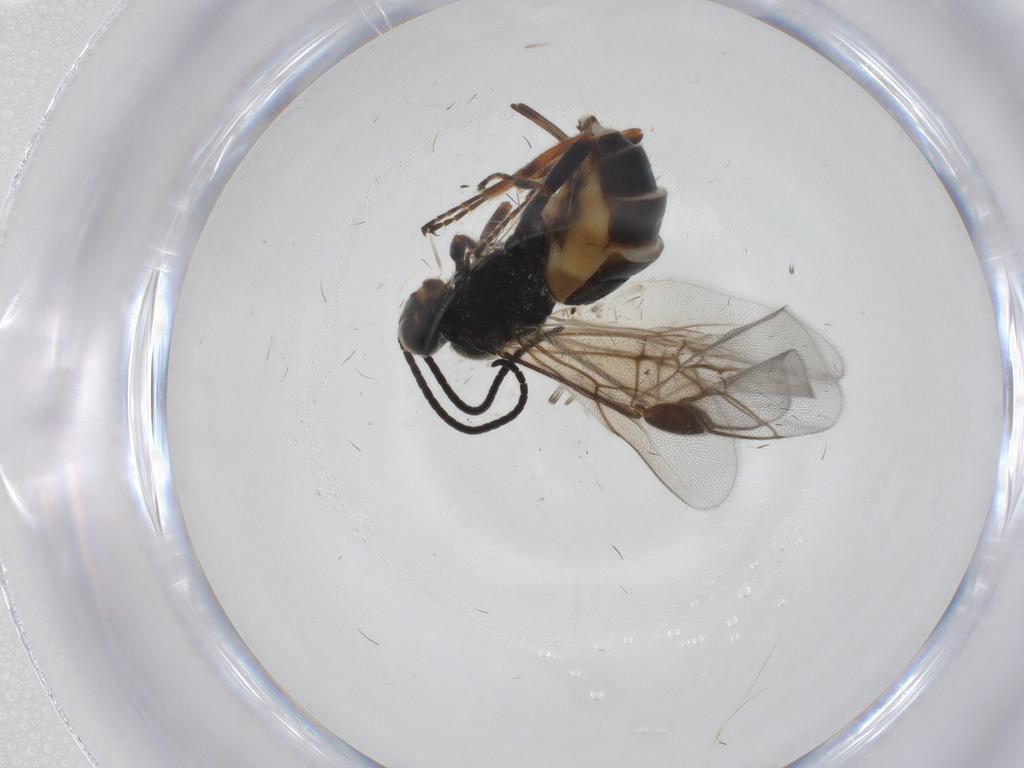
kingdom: Animalia
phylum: Arthropoda
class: Insecta
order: Hymenoptera
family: Braconidae
